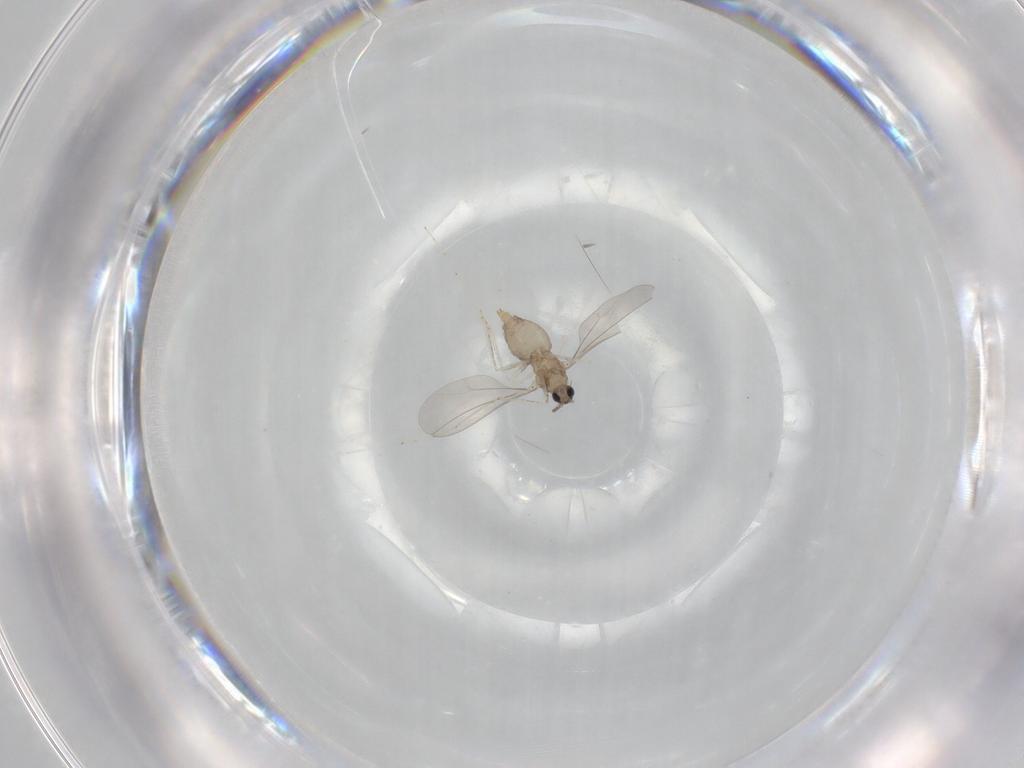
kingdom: Animalia
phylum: Arthropoda
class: Insecta
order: Diptera
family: Cecidomyiidae
